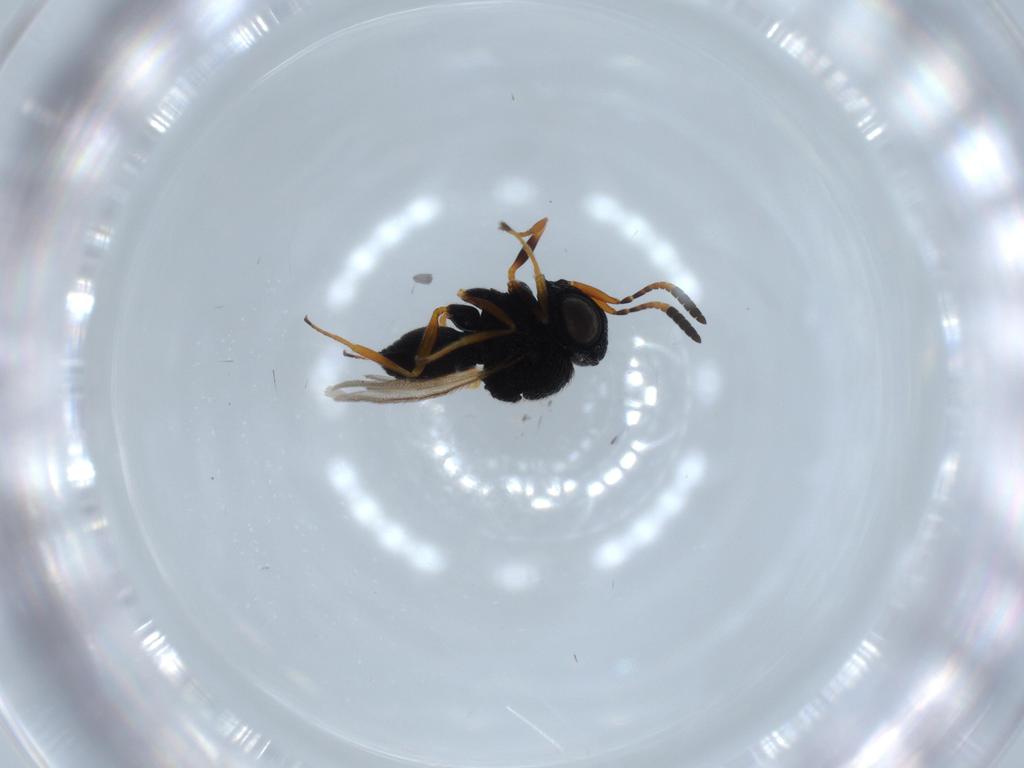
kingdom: Animalia
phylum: Arthropoda
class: Insecta
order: Hymenoptera
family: Scelionidae
